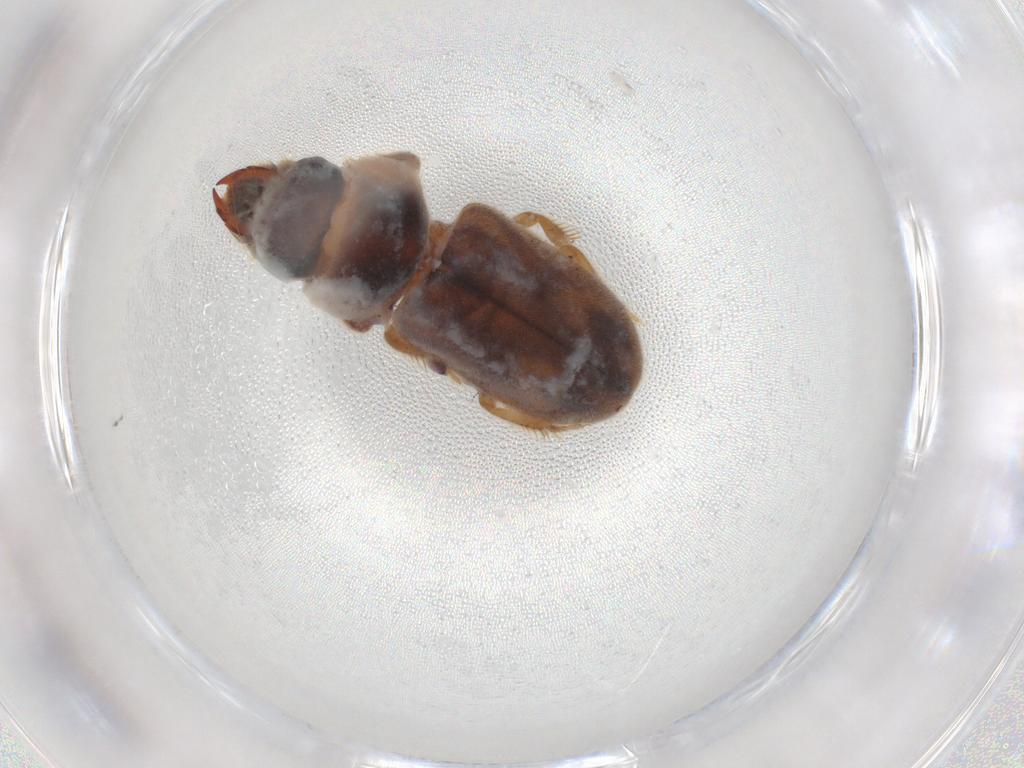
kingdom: Animalia
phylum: Arthropoda
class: Insecta
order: Coleoptera
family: Heteroceridae
